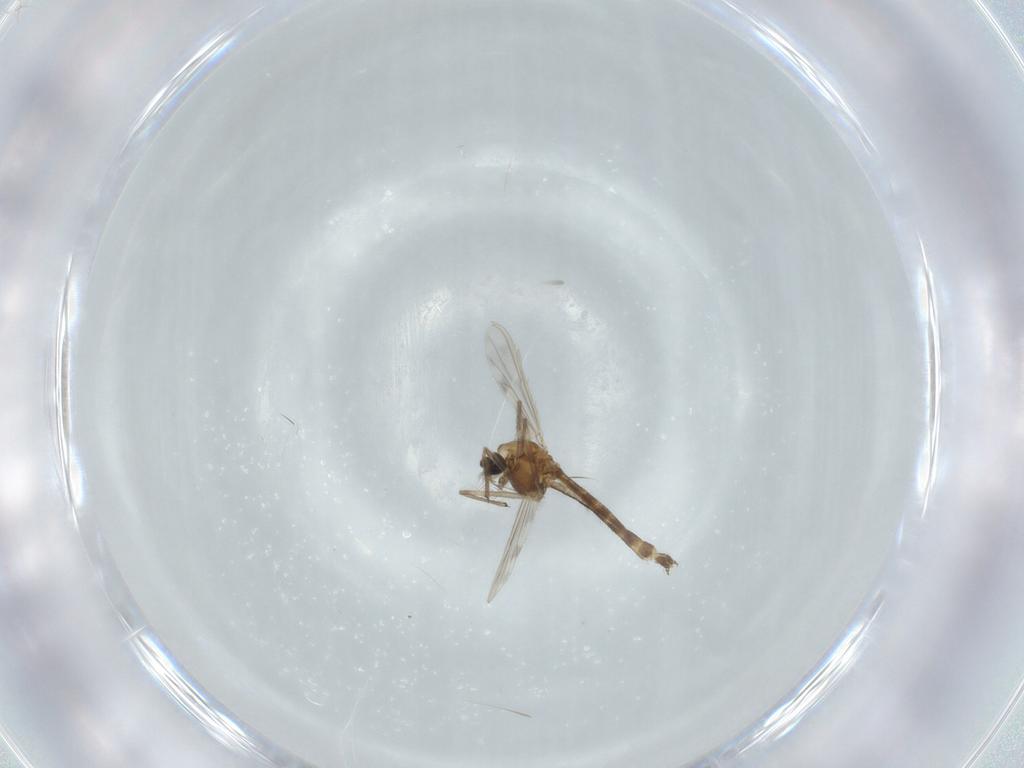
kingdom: Animalia
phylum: Arthropoda
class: Insecta
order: Diptera
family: Chironomidae
